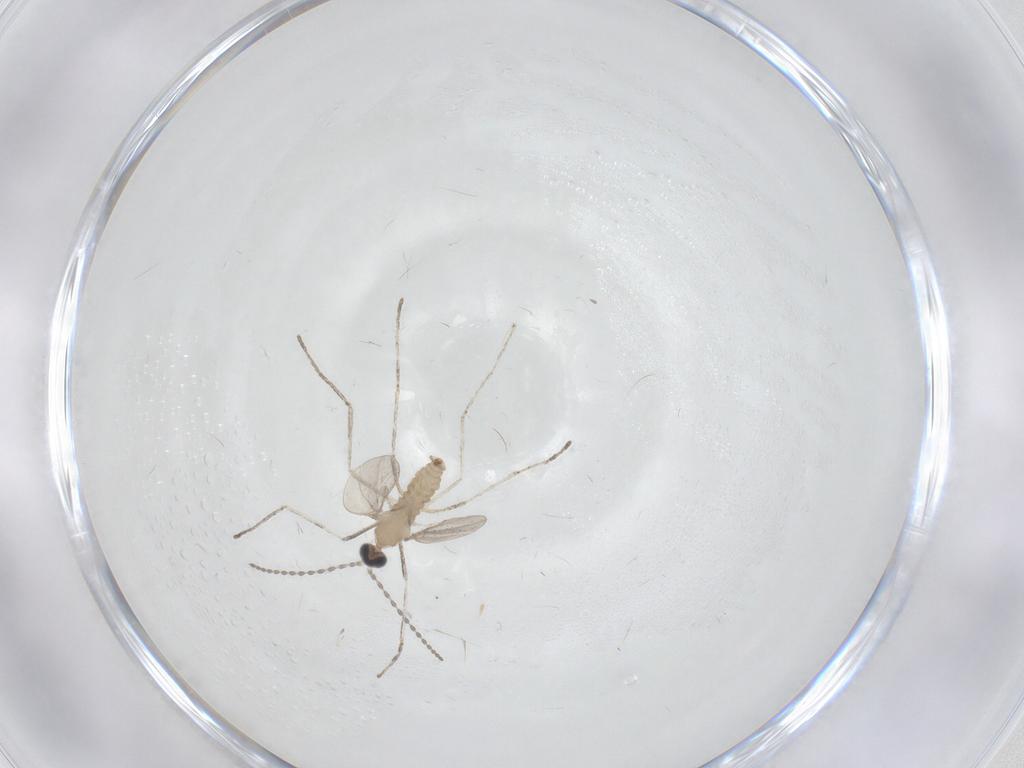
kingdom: Animalia
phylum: Arthropoda
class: Insecta
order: Diptera
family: Cecidomyiidae
